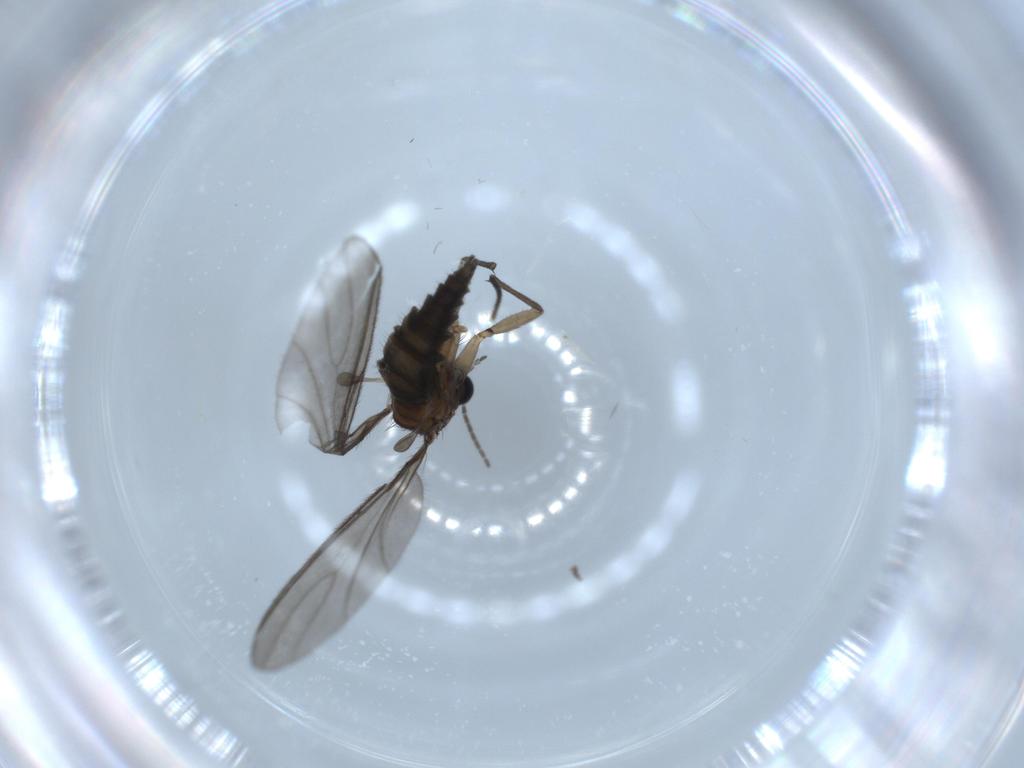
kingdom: Animalia
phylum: Arthropoda
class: Insecta
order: Diptera
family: Sciaridae
